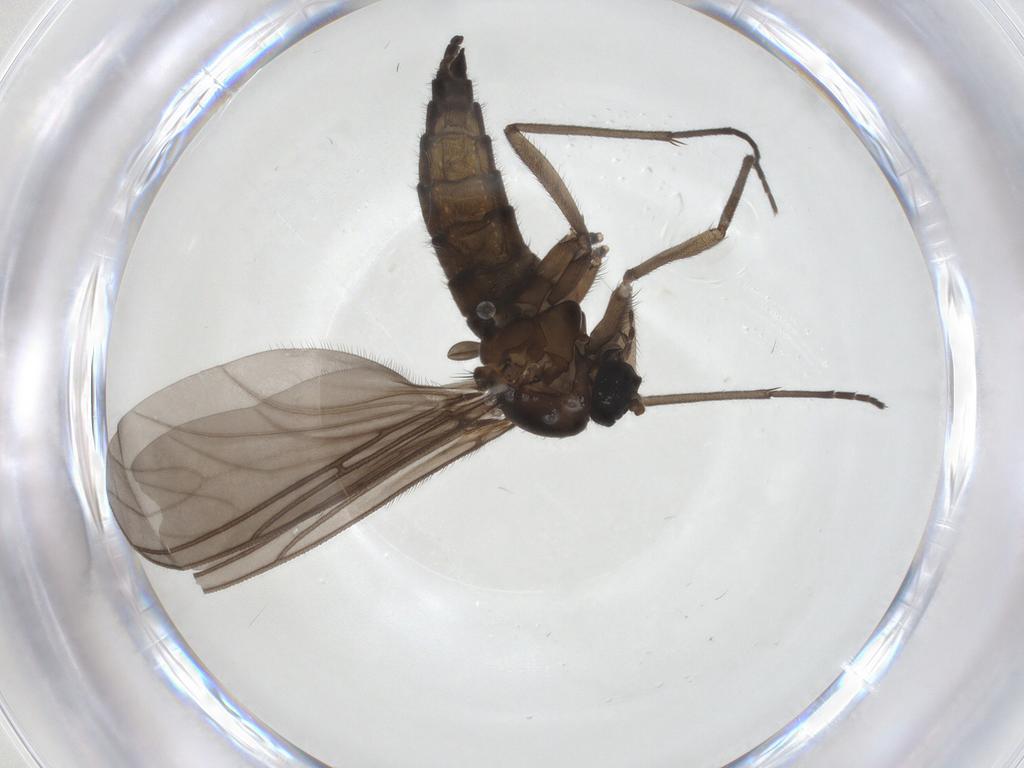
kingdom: Animalia
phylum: Arthropoda
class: Insecta
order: Diptera
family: Sciaridae
